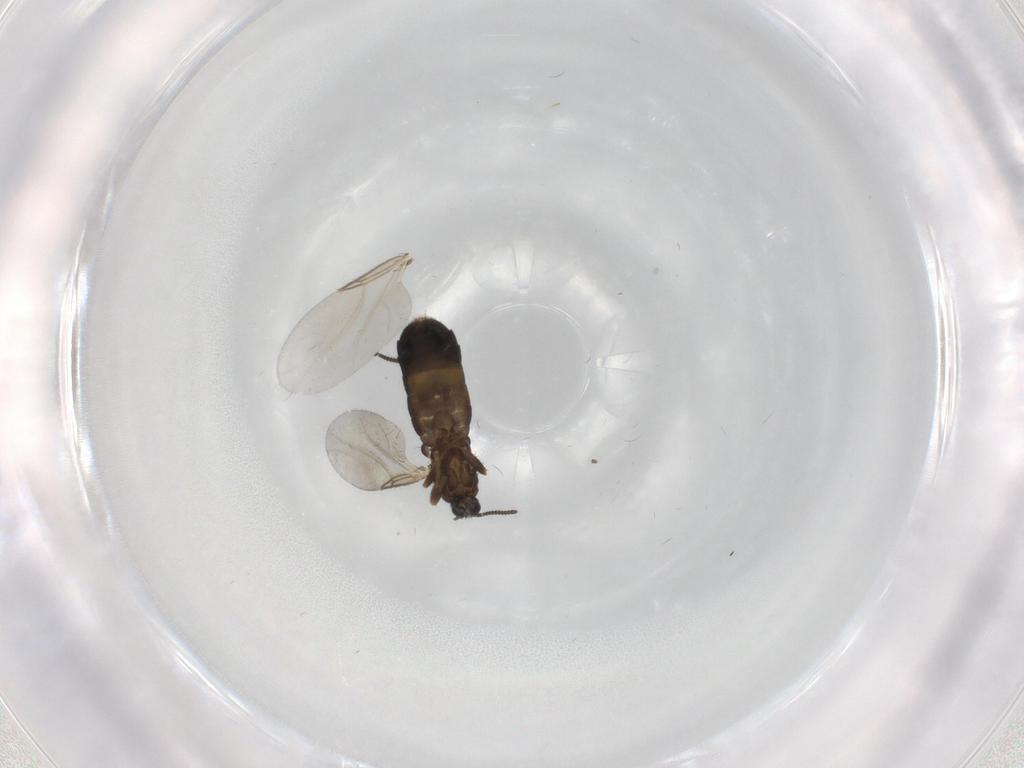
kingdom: Animalia
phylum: Arthropoda
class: Insecta
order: Diptera
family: Scatopsidae
